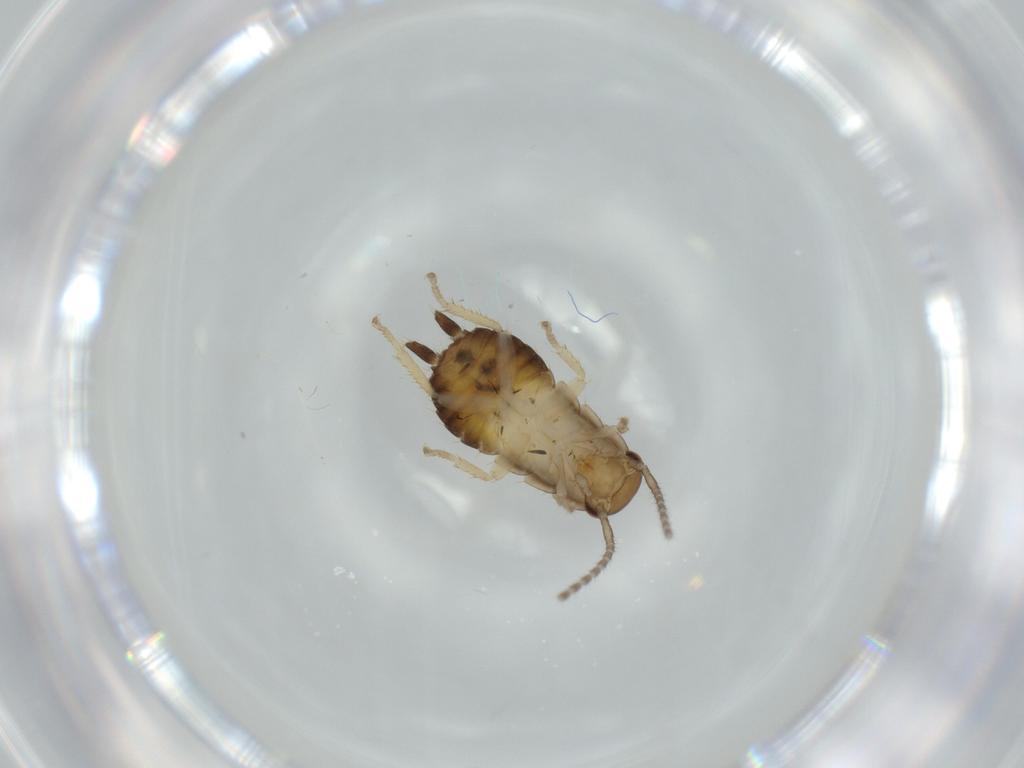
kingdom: Animalia
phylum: Arthropoda
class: Insecta
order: Blattodea
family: Ectobiidae
